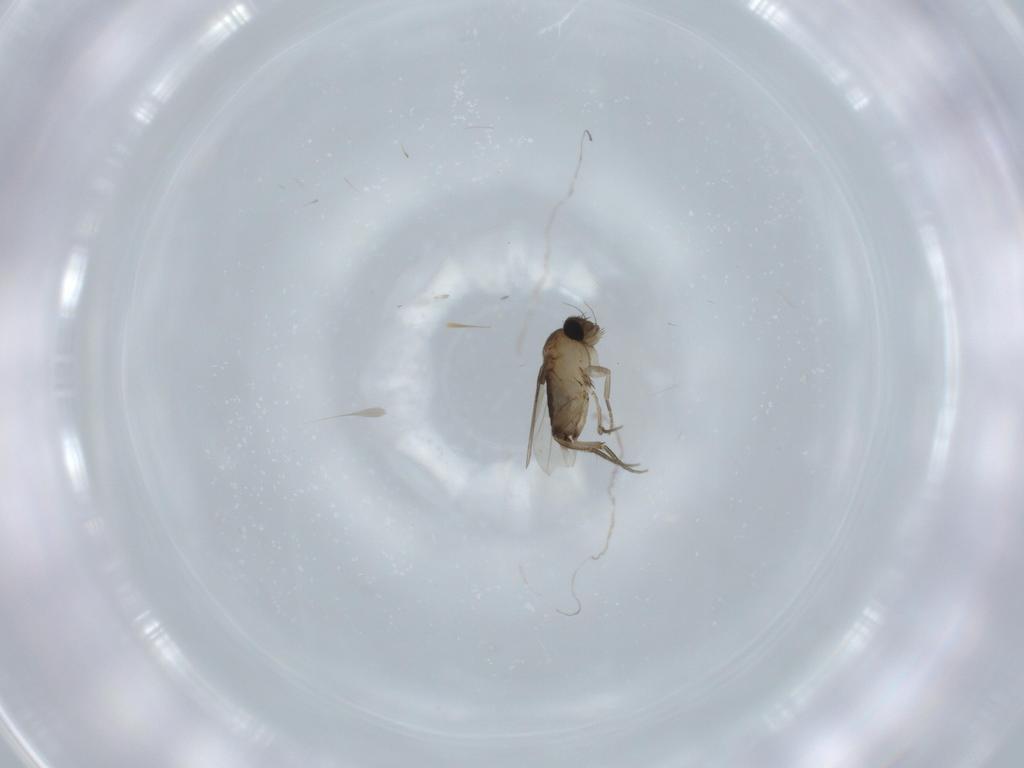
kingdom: Animalia
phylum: Arthropoda
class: Insecta
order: Diptera
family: Phoridae
